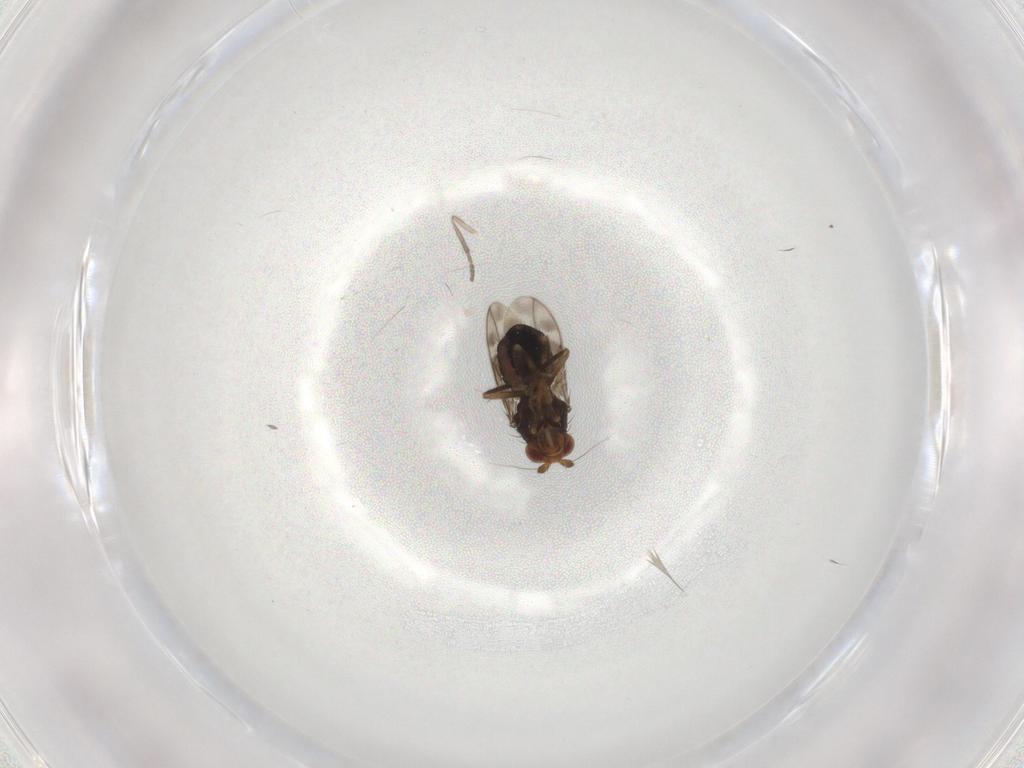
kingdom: Animalia
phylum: Arthropoda
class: Insecta
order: Diptera
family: Sphaeroceridae
